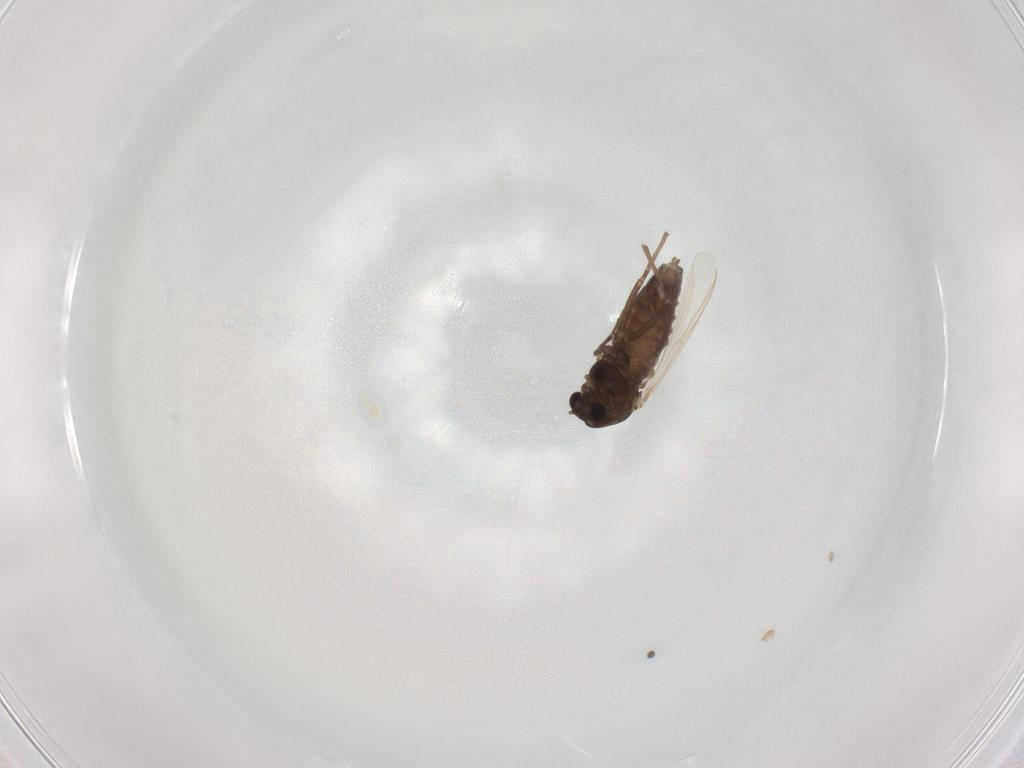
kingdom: Animalia
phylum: Arthropoda
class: Insecta
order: Diptera
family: Chironomidae
